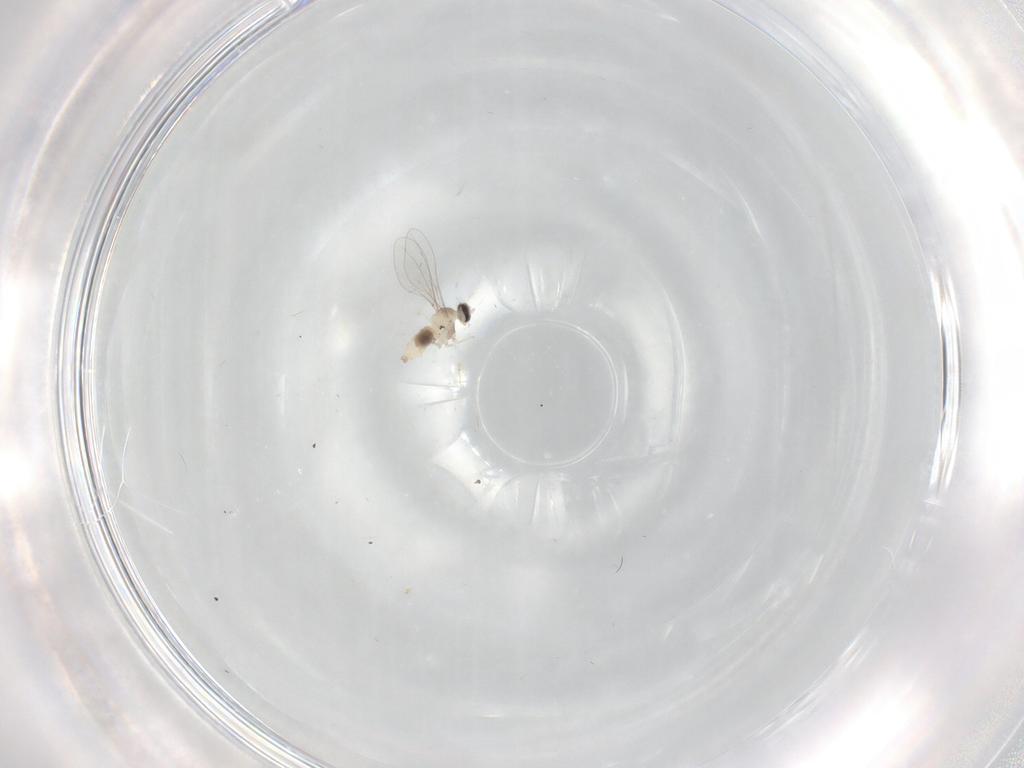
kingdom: Animalia
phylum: Arthropoda
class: Insecta
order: Diptera
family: Cecidomyiidae
